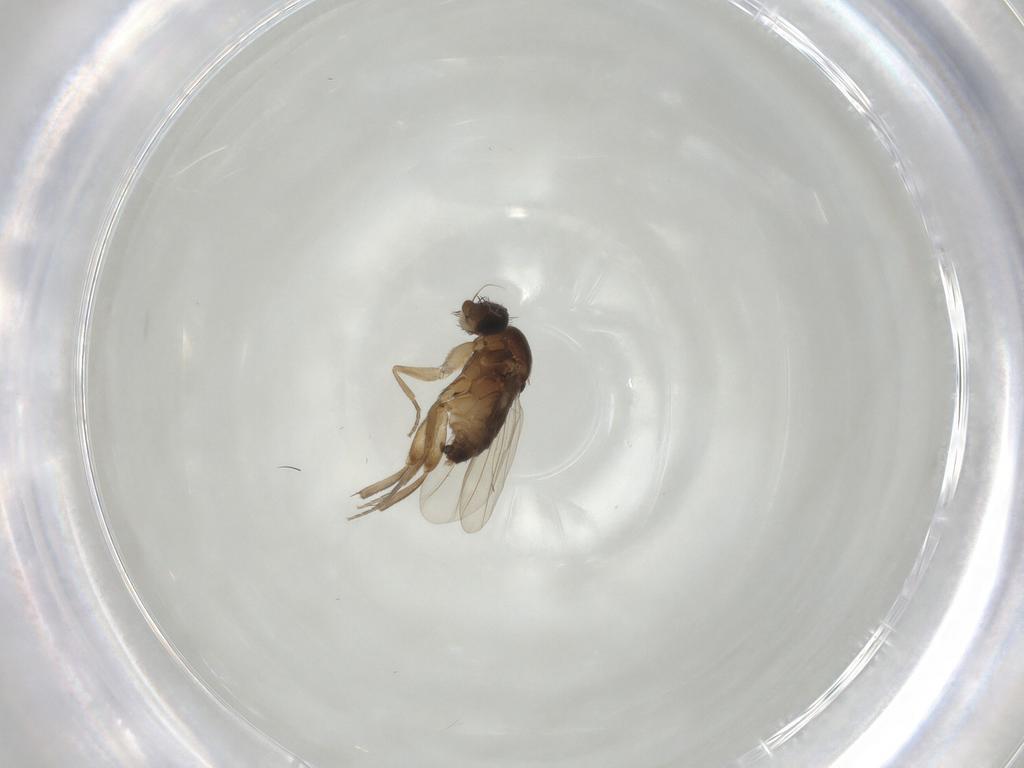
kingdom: Animalia
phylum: Arthropoda
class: Insecta
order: Diptera
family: Phoridae
